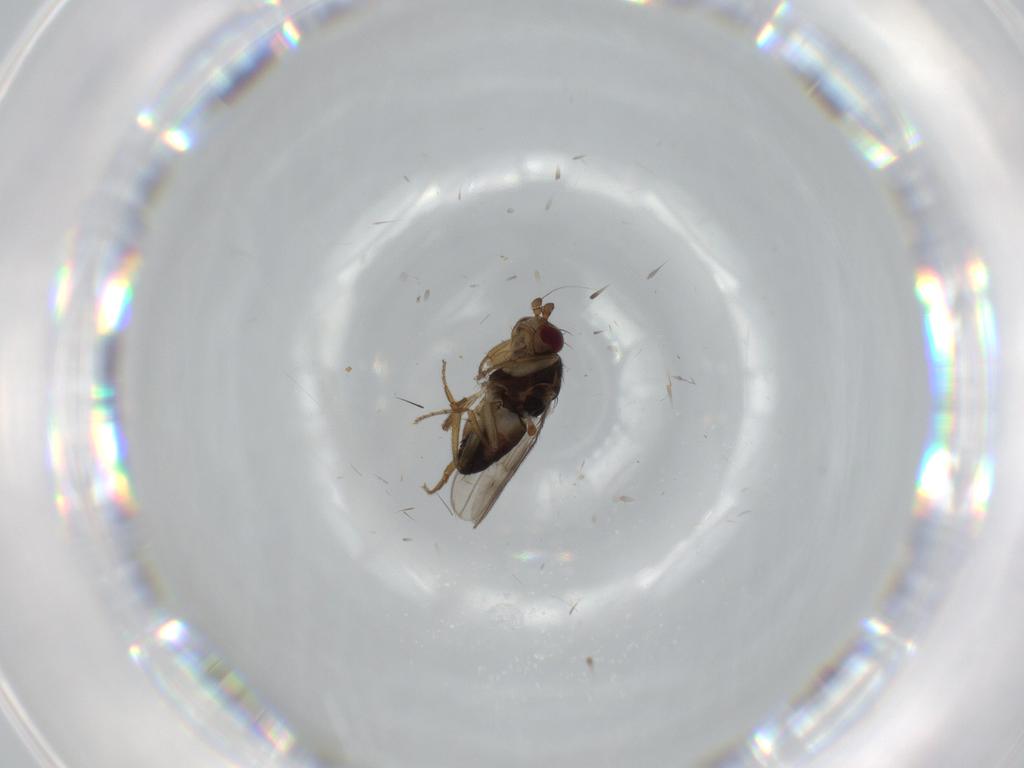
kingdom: Animalia
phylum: Arthropoda
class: Insecta
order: Diptera
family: Sphaeroceridae
